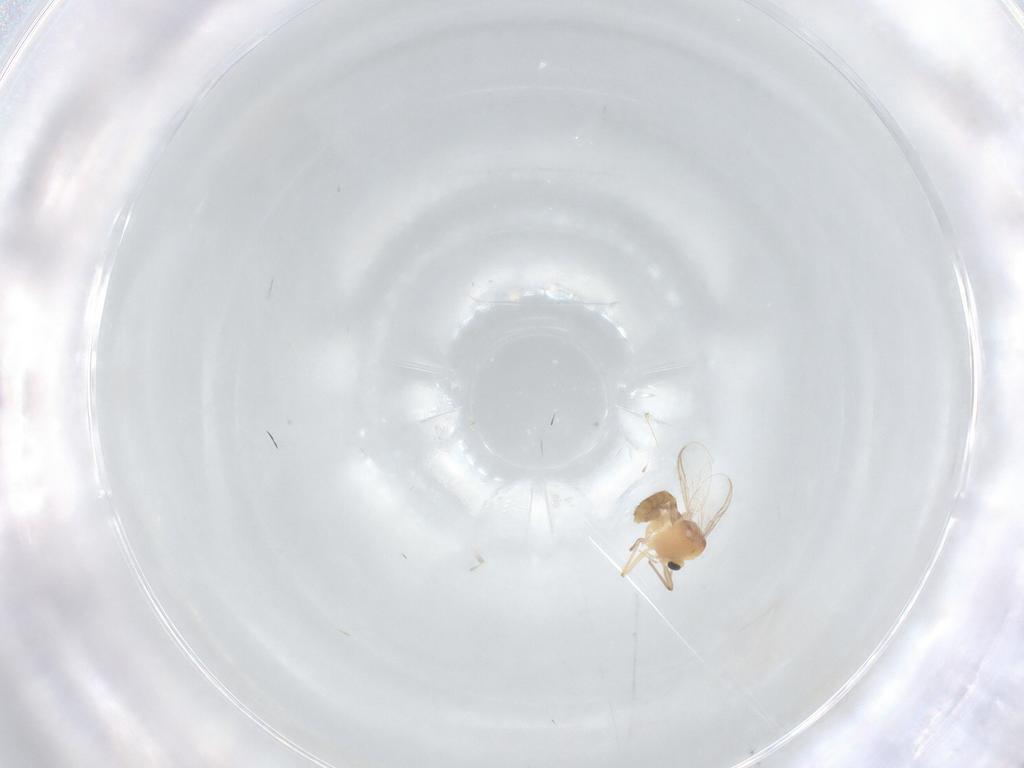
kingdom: Animalia
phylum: Arthropoda
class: Insecta
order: Diptera
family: Chironomidae
